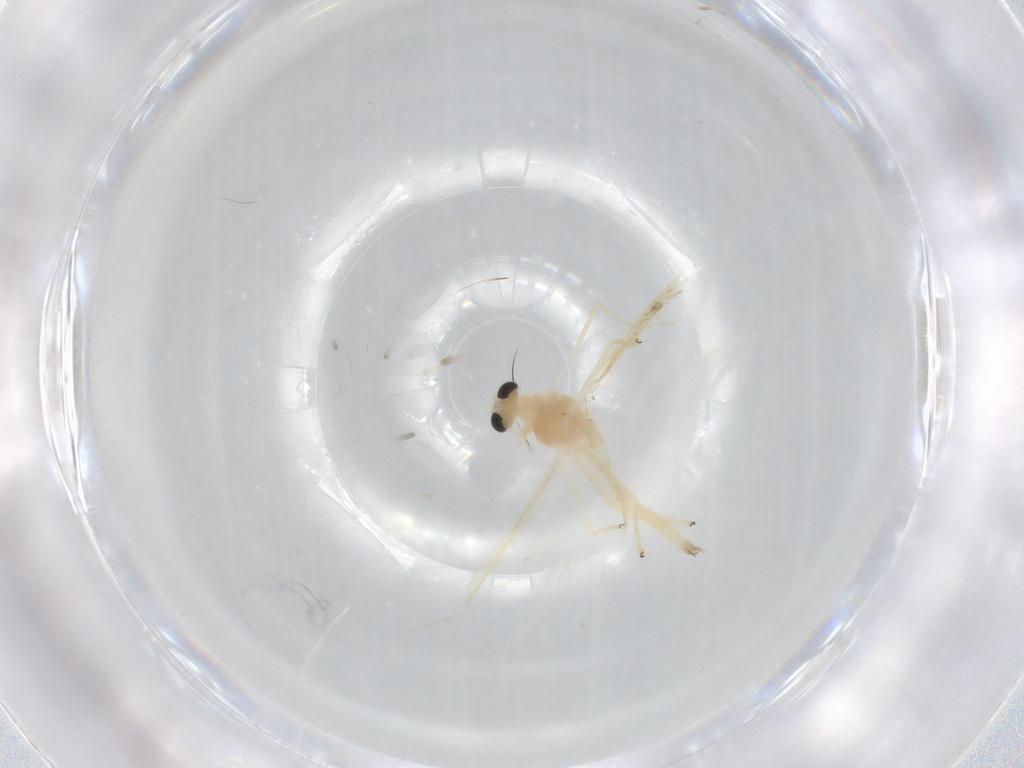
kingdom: Animalia
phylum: Arthropoda
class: Insecta
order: Diptera
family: Chironomidae
